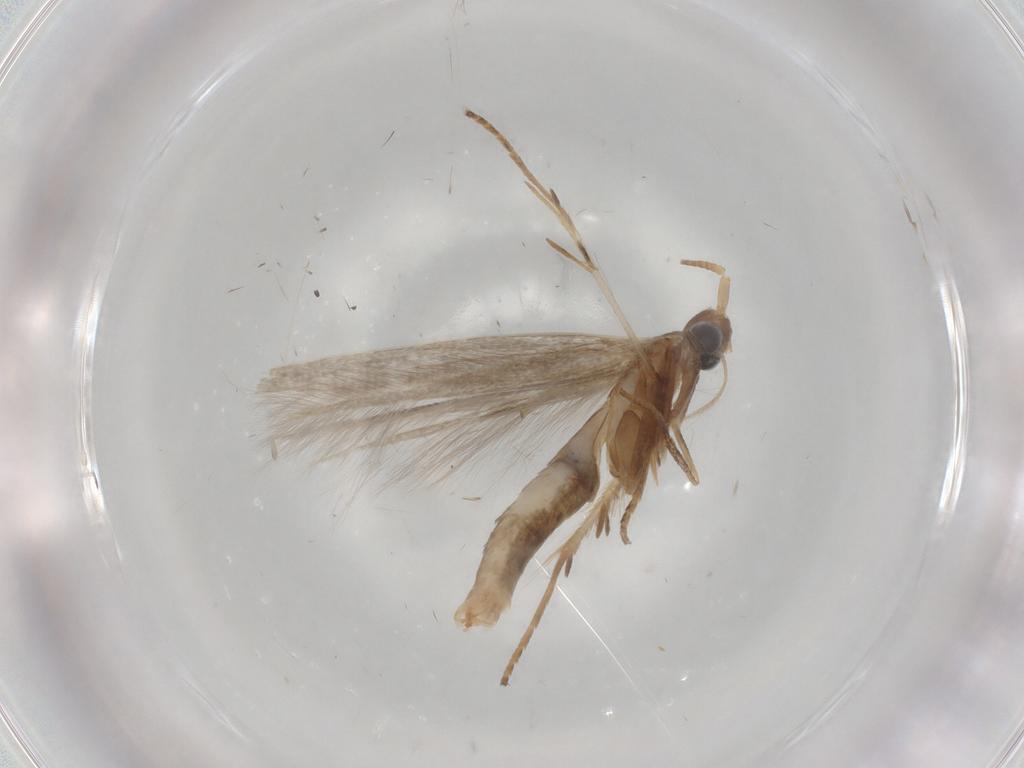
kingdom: Animalia
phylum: Arthropoda
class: Insecta
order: Lepidoptera
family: Tineidae
